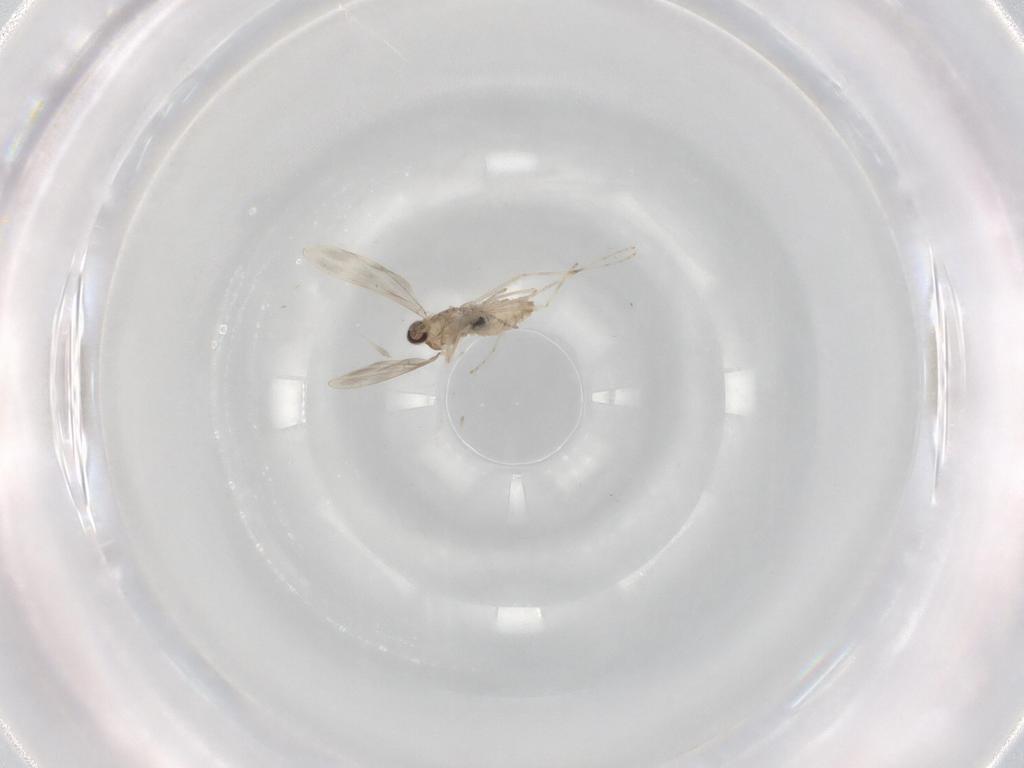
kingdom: Animalia
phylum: Arthropoda
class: Insecta
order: Diptera
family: Cecidomyiidae
